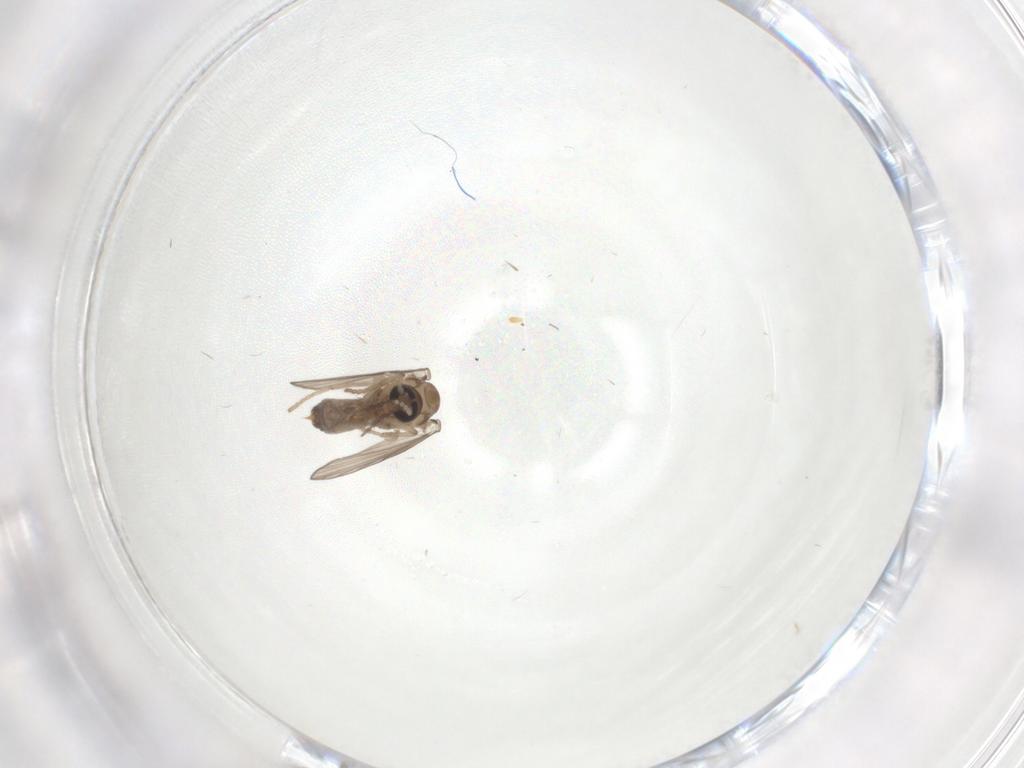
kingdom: Animalia
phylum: Arthropoda
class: Insecta
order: Diptera
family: Psychodidae
